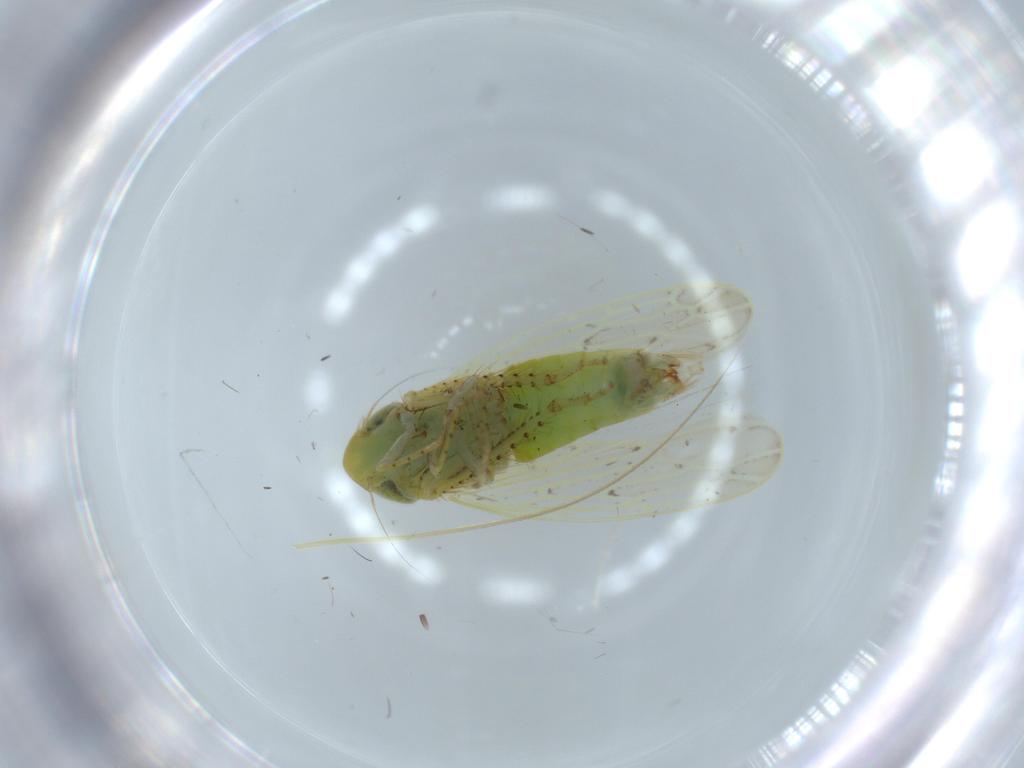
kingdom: Animalia
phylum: Arthropoda
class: Insecta
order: Hemiptera
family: Cicadellidae
